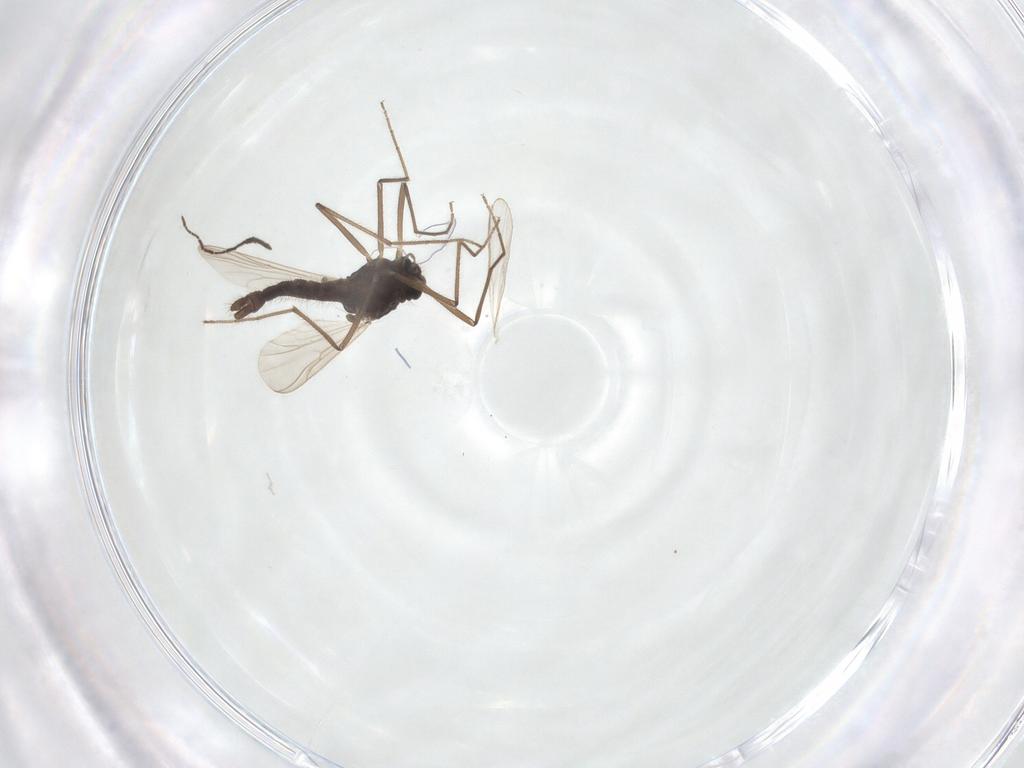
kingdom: Animalia
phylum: Arthropoda
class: Insecta
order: Diptera
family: Chironomidae
